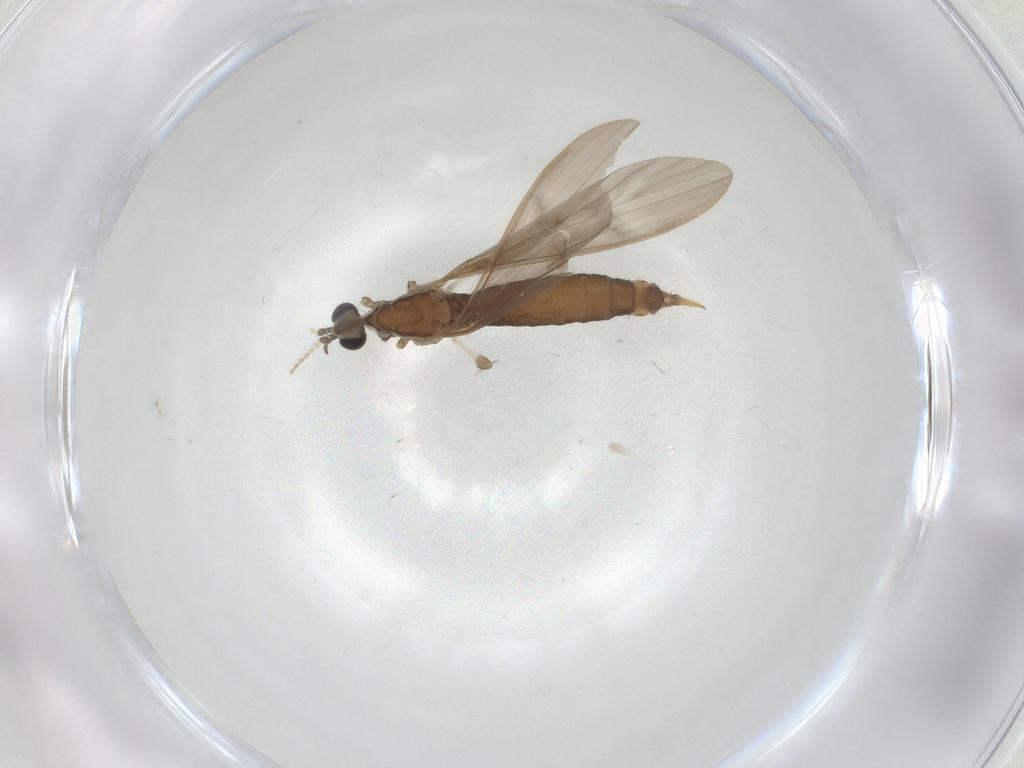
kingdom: Animalia
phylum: Arthropoda
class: Insecta
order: Diptera
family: Limoniidae
